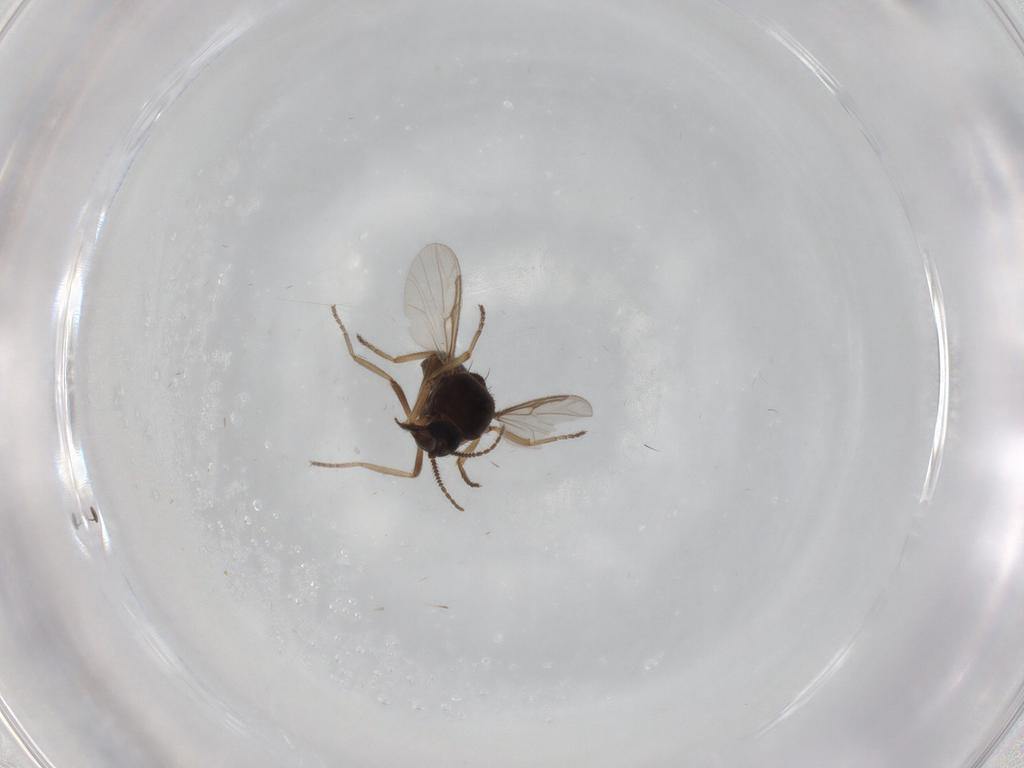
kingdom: Animalia
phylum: Arthropoda
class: Insecta
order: Diptera
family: Ceratopogonidae
